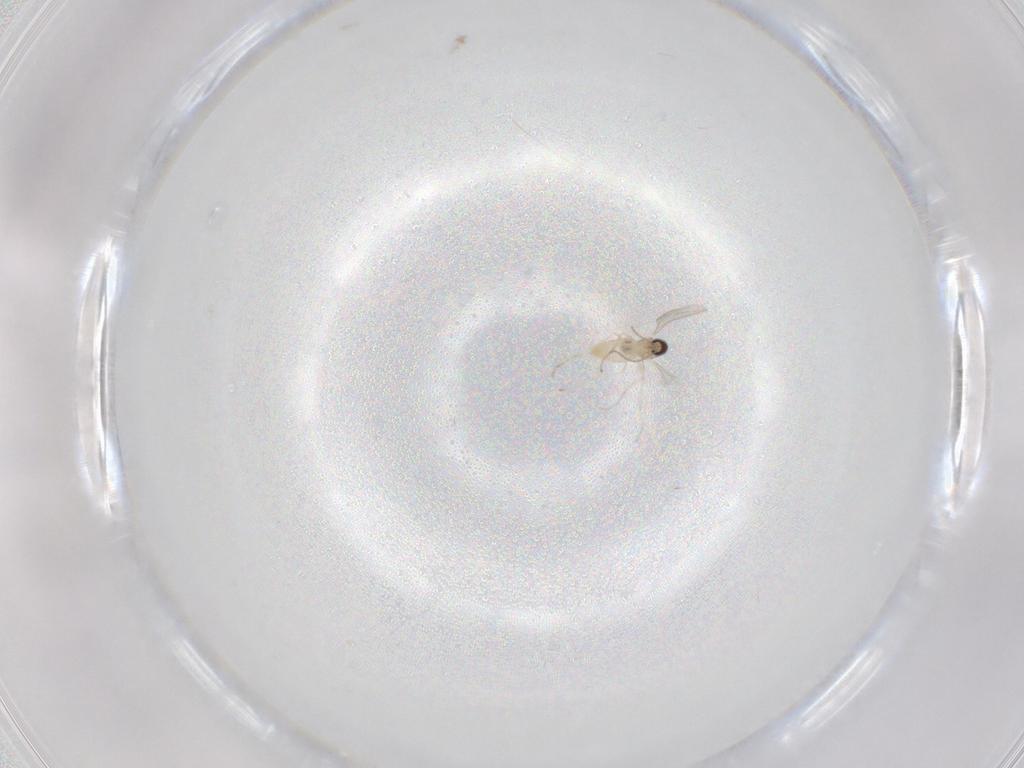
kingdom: Animalia
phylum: Arthropoda
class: Insecta
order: Diptera
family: Cecidomyiidae
